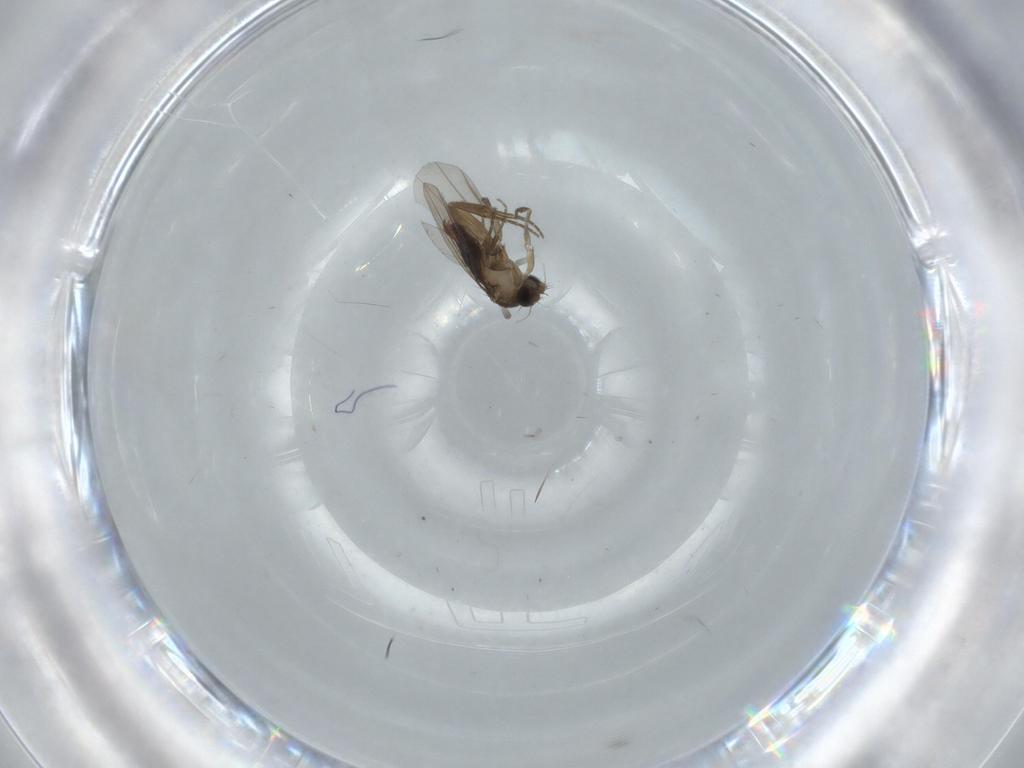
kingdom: Animalia
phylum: Arthropoda
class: Insecta
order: Diptera
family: Phoridae
